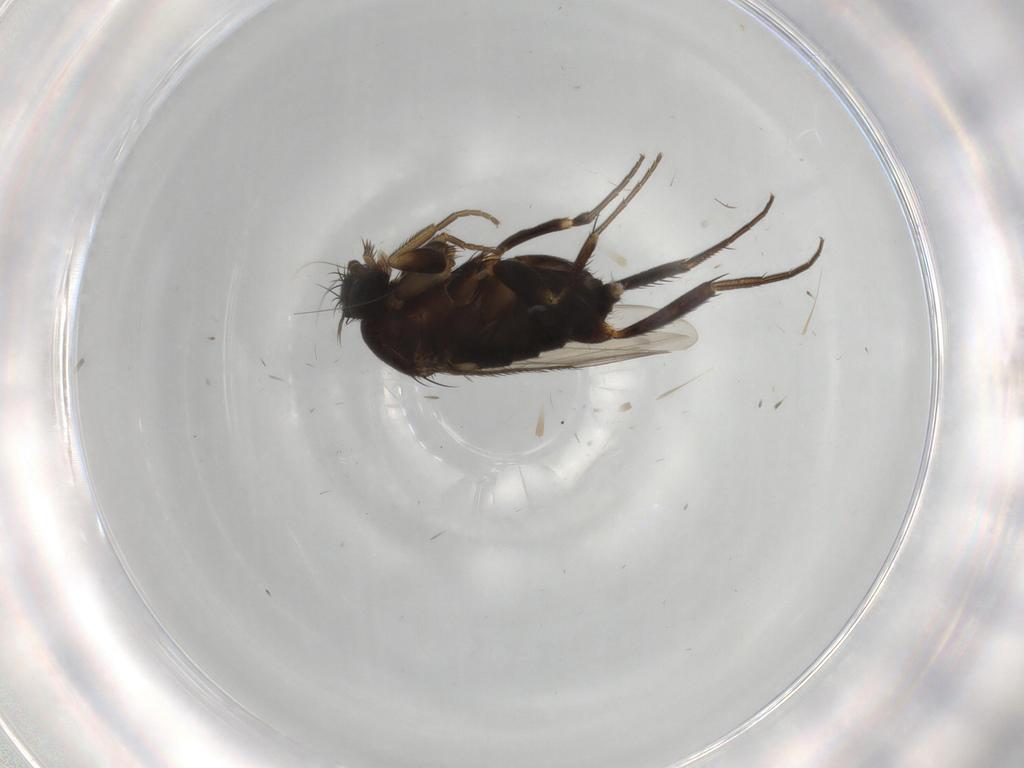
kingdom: Animalia
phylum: Arthropoda
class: Insecta
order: Diptera
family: Phoridae
